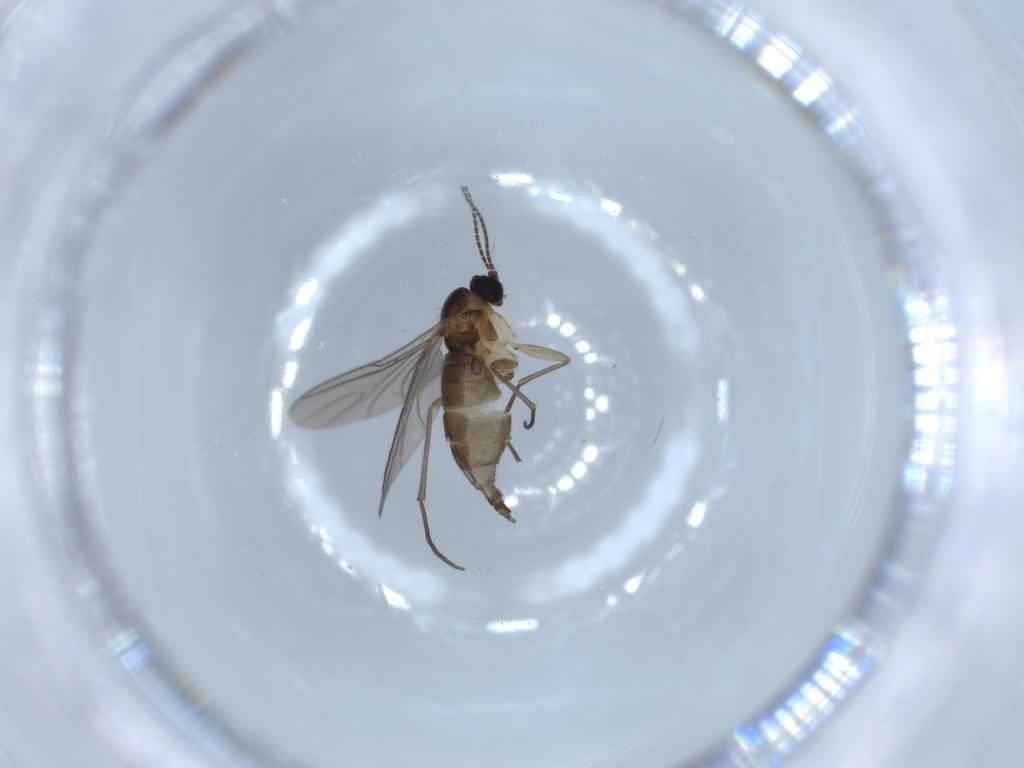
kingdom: Animalia
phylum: Arthropoda
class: Insecta
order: Diptera
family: Sciaridae
